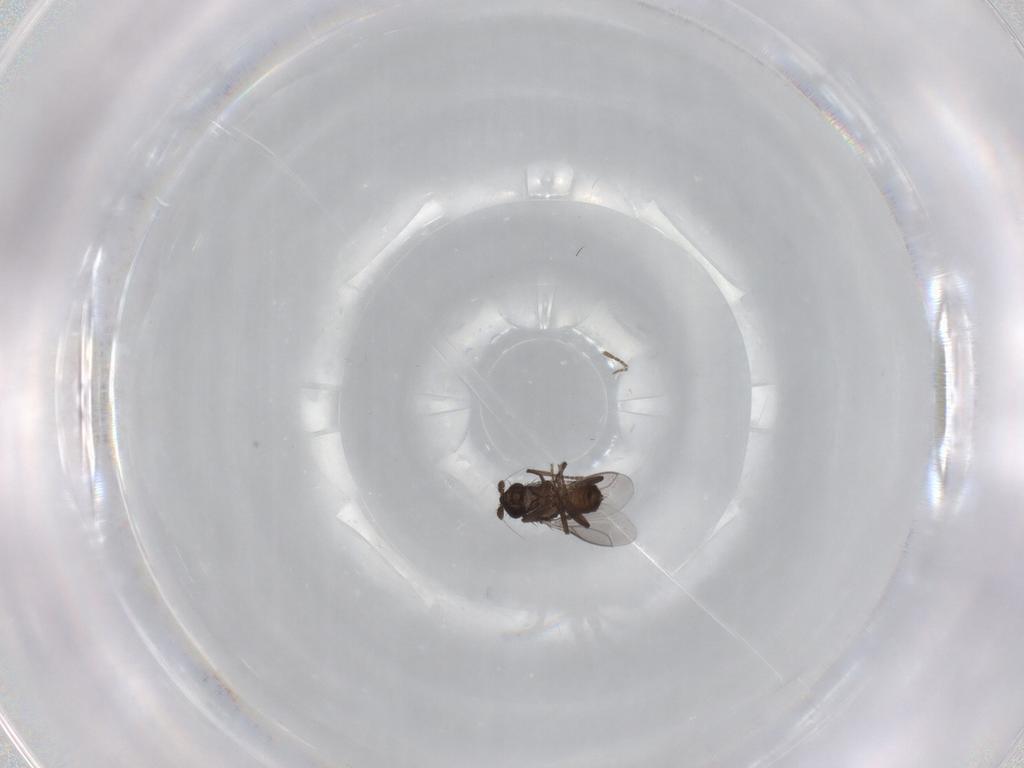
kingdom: Animalia
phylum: Arthropoda
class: Insecta
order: Diptera
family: Sphaeroceridae
